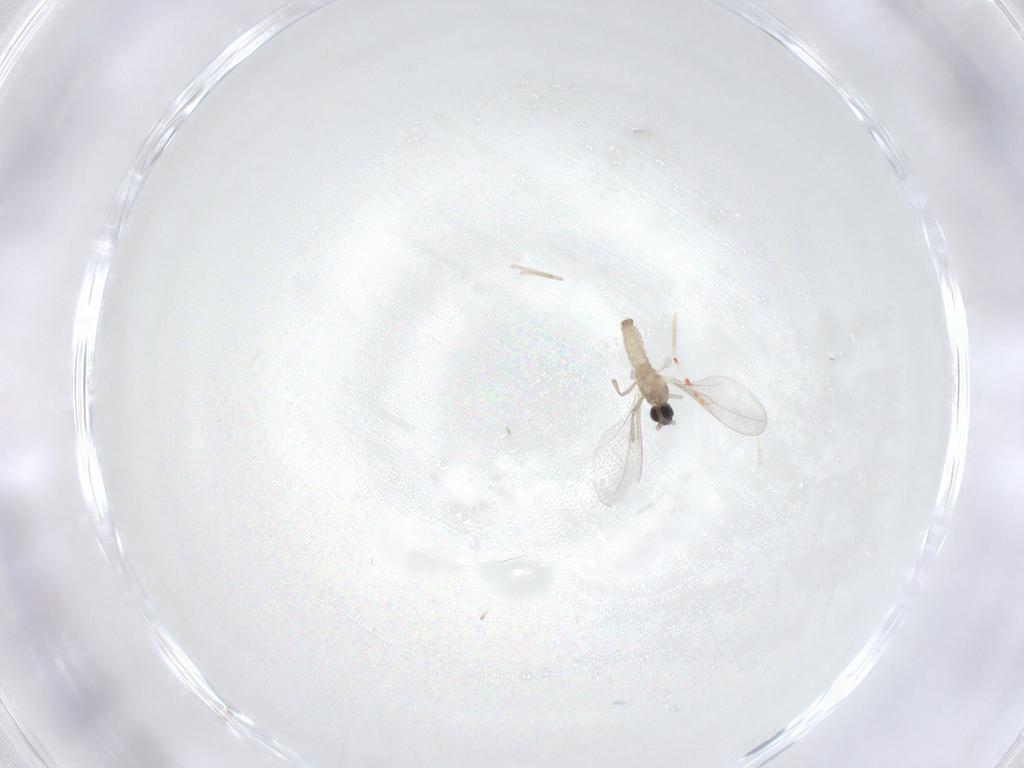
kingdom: Animalia
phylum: Arthropoda
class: Insecta
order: Diptera
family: Cecidomyiidae
